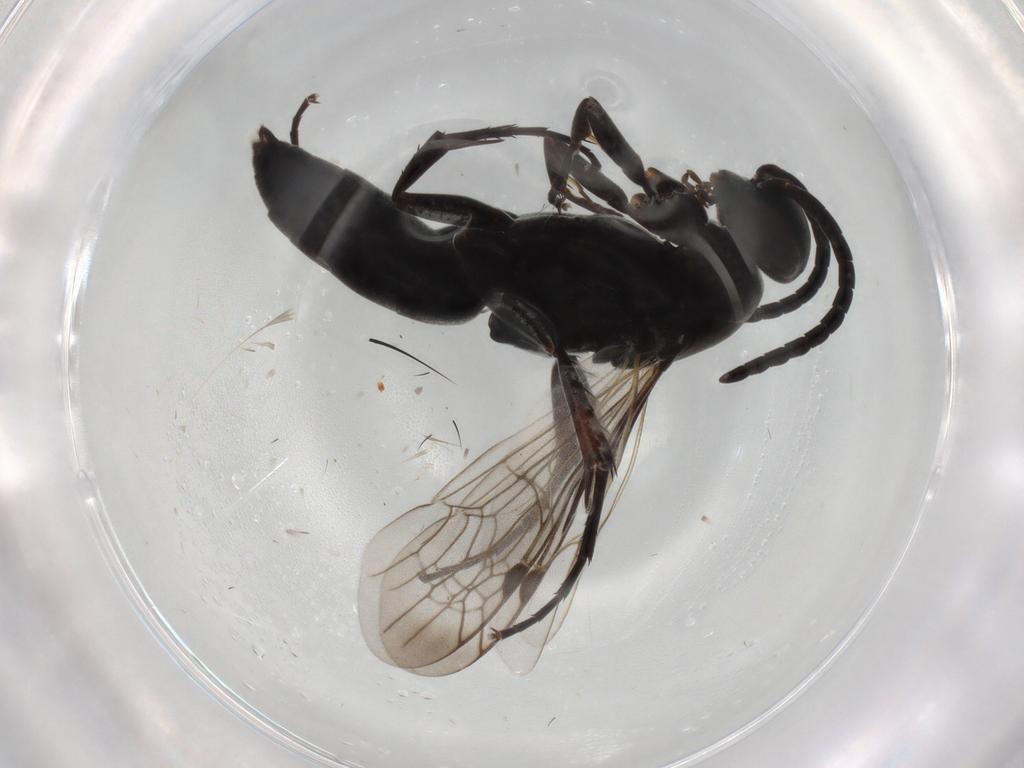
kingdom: Animalia
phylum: Arthropoda
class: Insecta
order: Hymenoptera
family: Pompilidae
